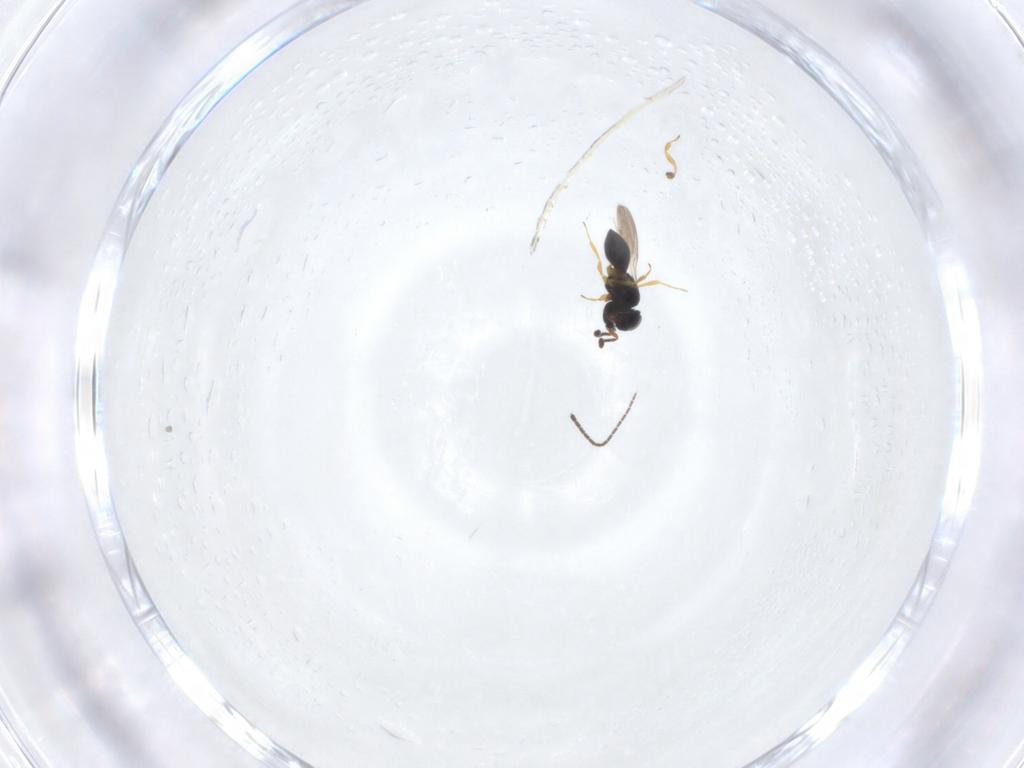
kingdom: Animalia
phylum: Arthropoda
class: Insecta
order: Hymenoptera
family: Scelionidae
